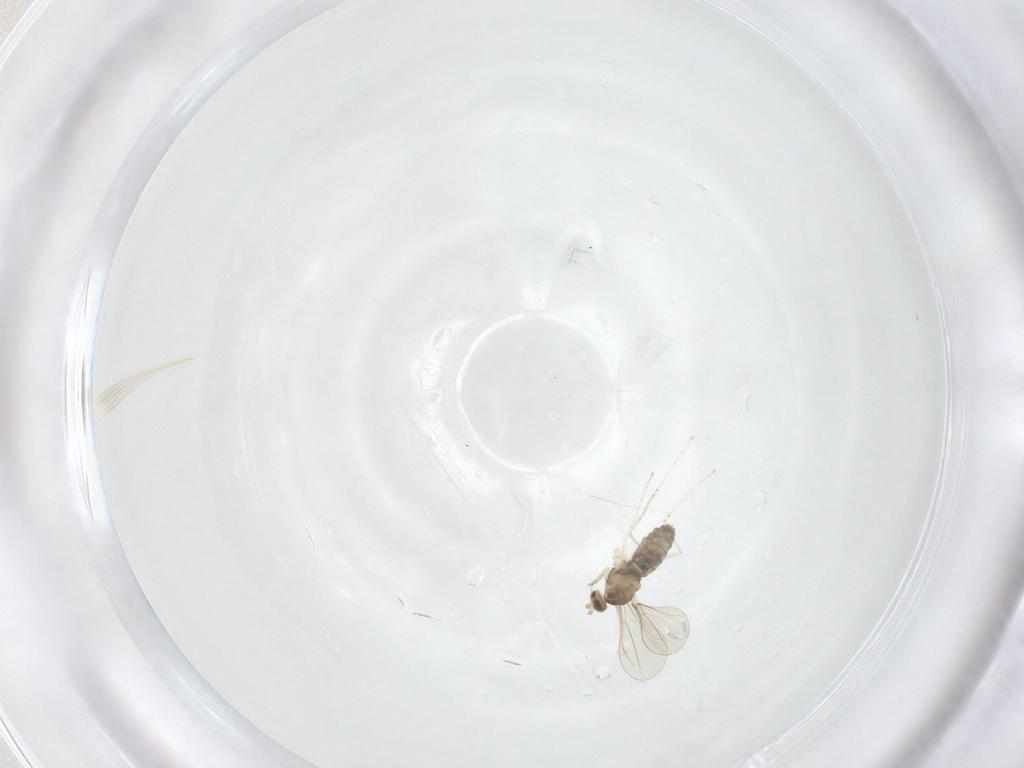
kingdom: Animalia
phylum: Arthropoda
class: Insecta
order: Diptera
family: Cecidomyiidae
